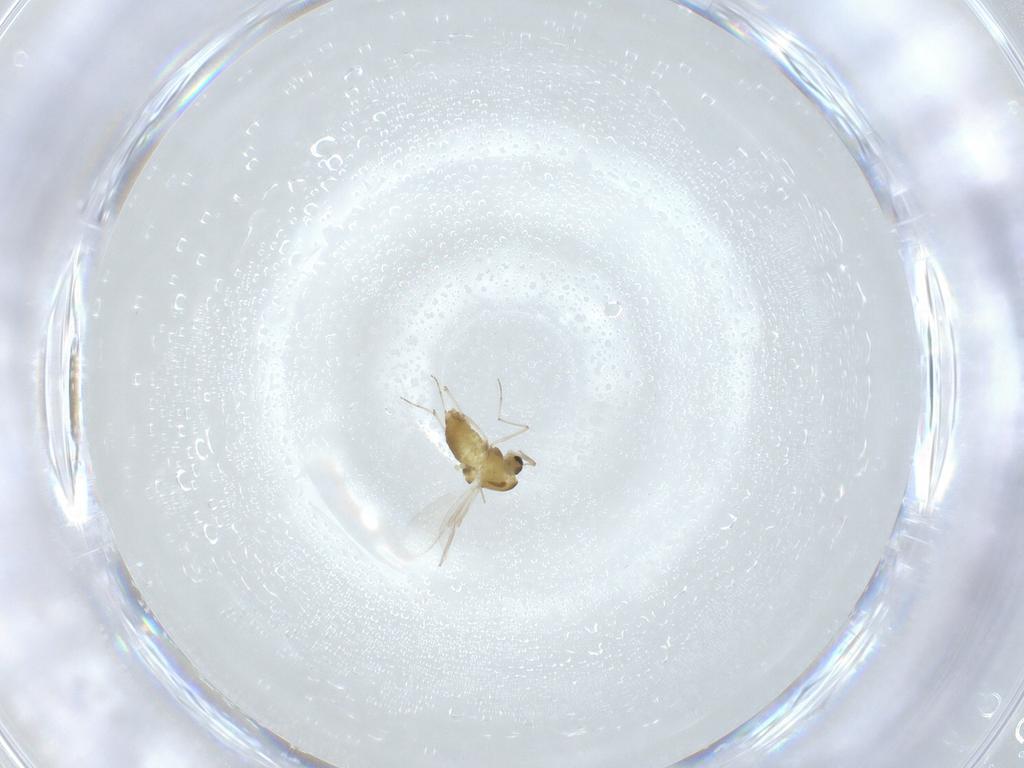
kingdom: Animalia
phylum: Arthropoda
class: Insecta
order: Diptera
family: Chironomidae
